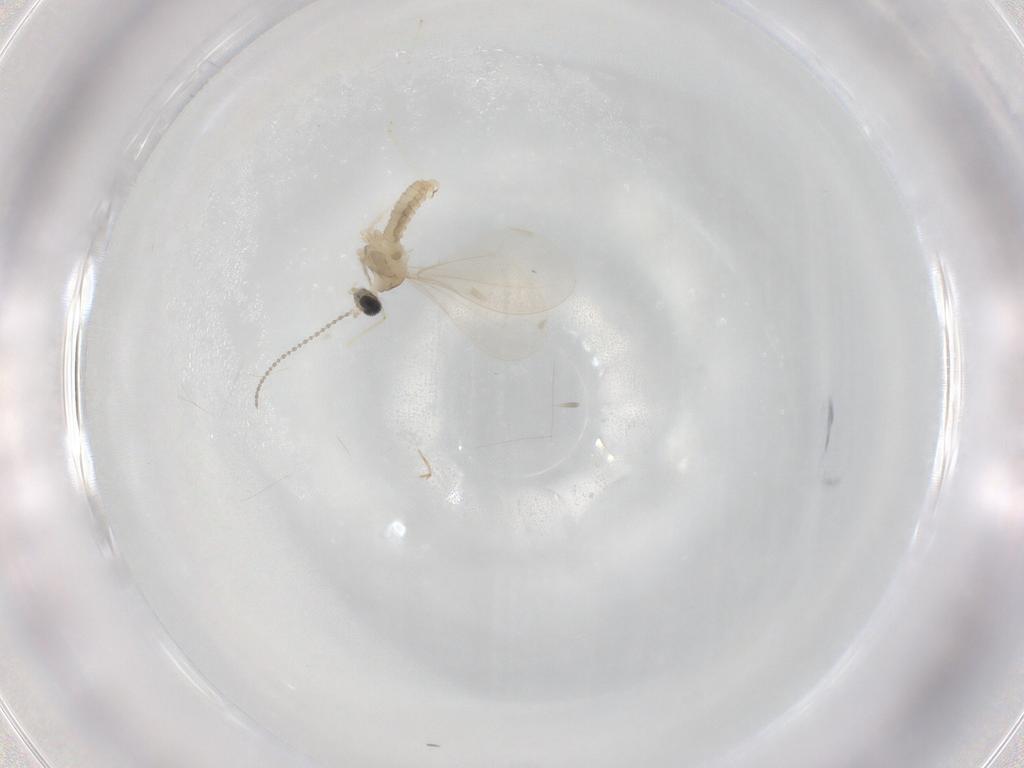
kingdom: Animalia
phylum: Arthropoda
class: Insecta
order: Diptera
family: Cecidomyiidae
